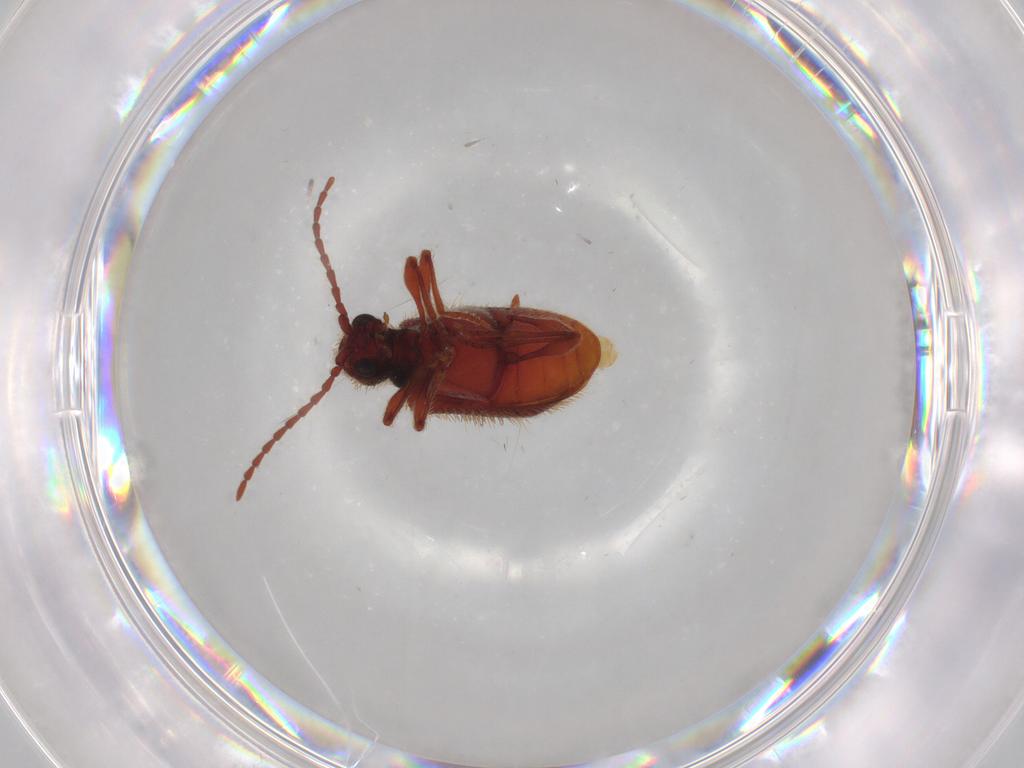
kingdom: Animalia
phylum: Arthropoda
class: Insecta
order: Coleoptera
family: Ptinidae
